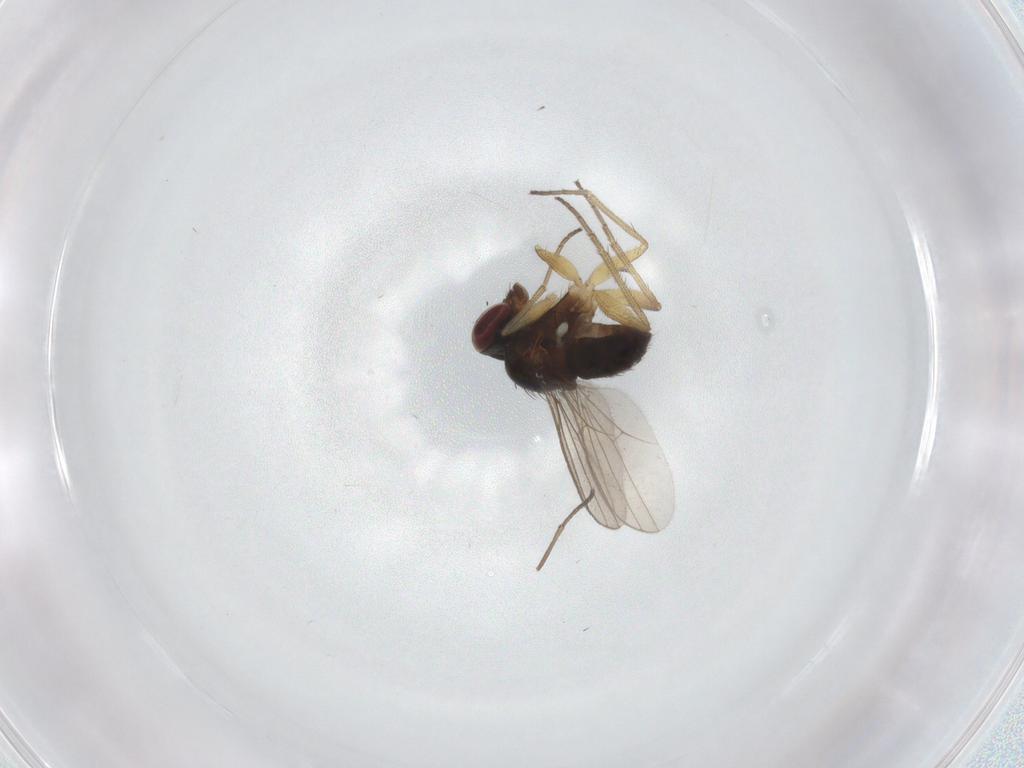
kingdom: Animalia
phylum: Arthropoda
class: Insecta
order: Diptera
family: Dolichopodidae
